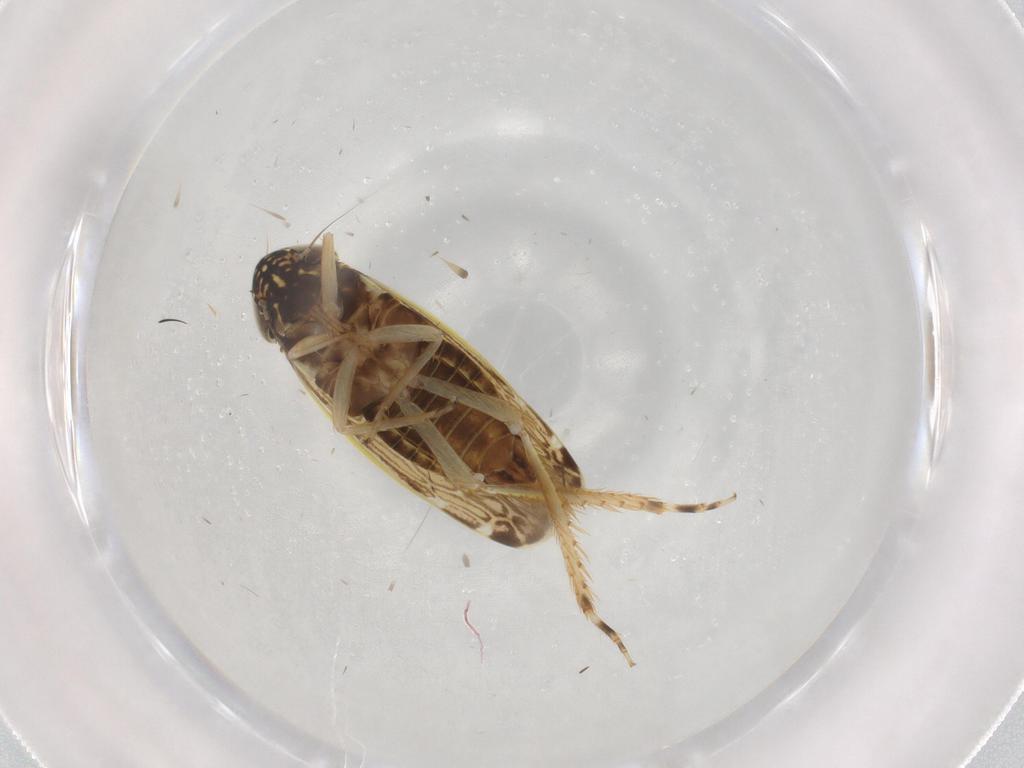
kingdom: Animalia
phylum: Arthropoda
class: Insecta
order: Hemiptera
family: Cicadellidae
